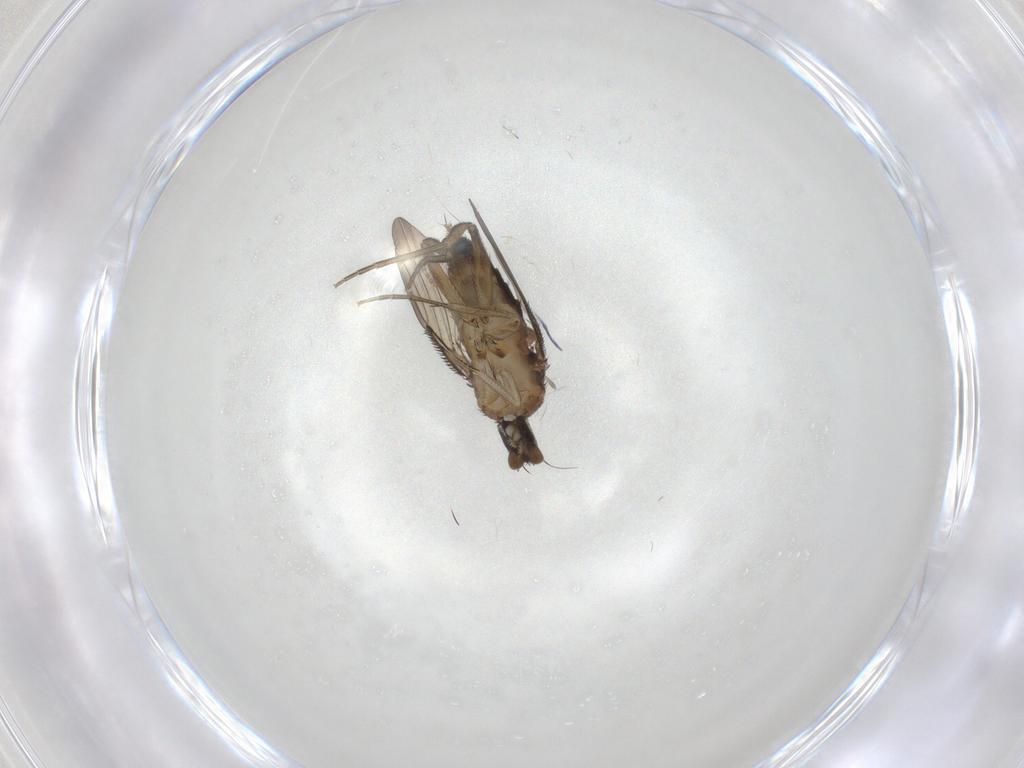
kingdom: Animalia
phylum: Arthropoda
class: Insecta
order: Diptera
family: Phoridae
